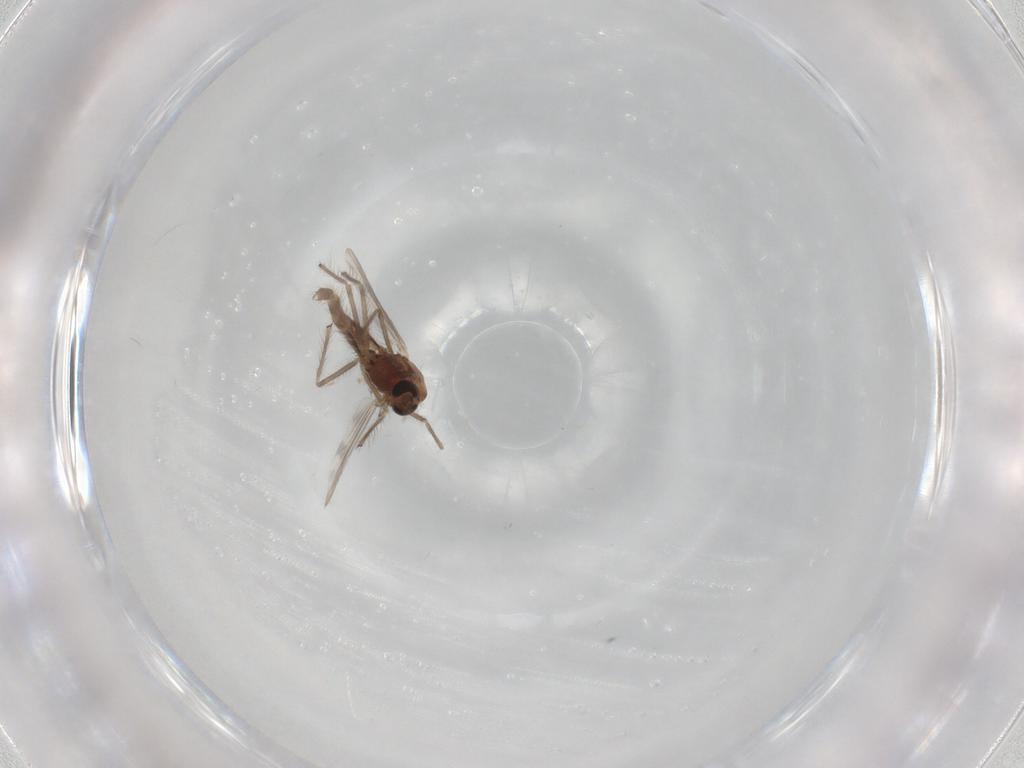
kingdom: Animalia
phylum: Arthropoda
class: Insecta
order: Diptera
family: Chironomidae
